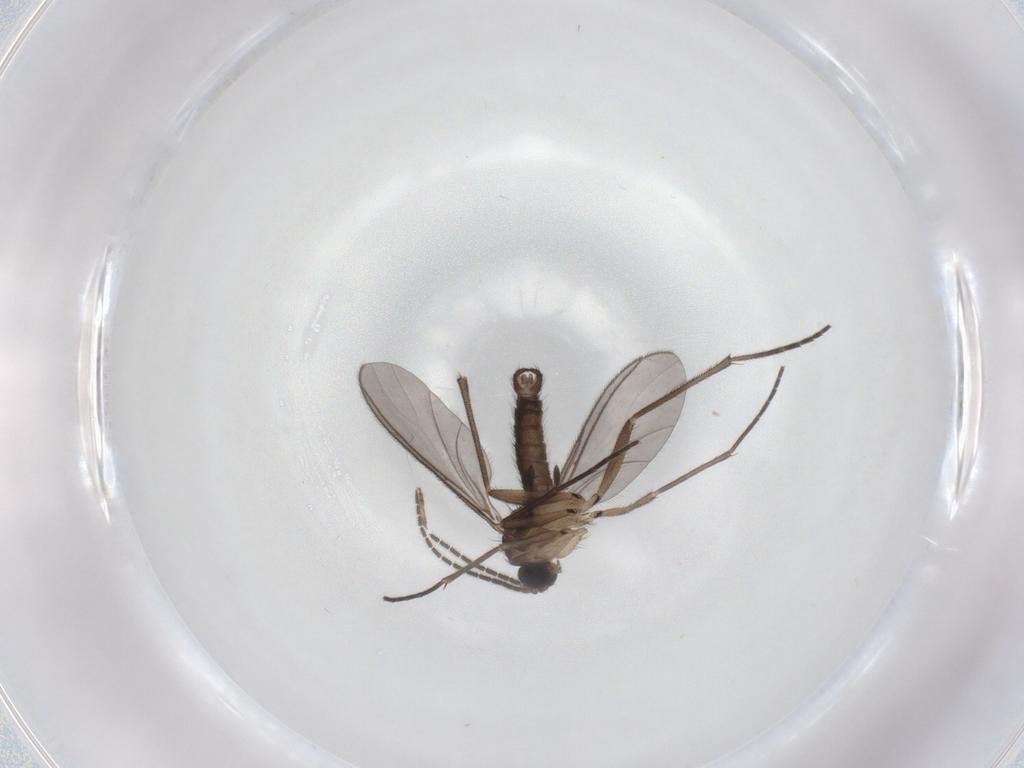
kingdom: Animalia
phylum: Arthropoda
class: Insecta
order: Diptera
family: Sciaridae
